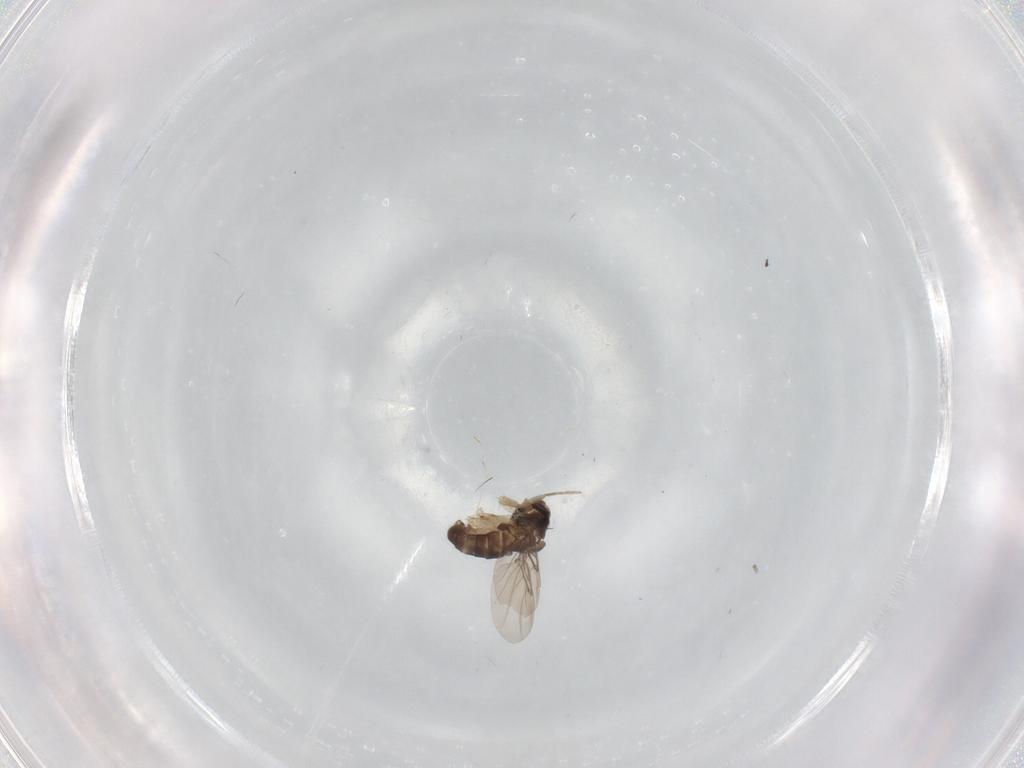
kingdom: Animalia
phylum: Arthropoda
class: Insecta
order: Diptera
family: Phoridae
